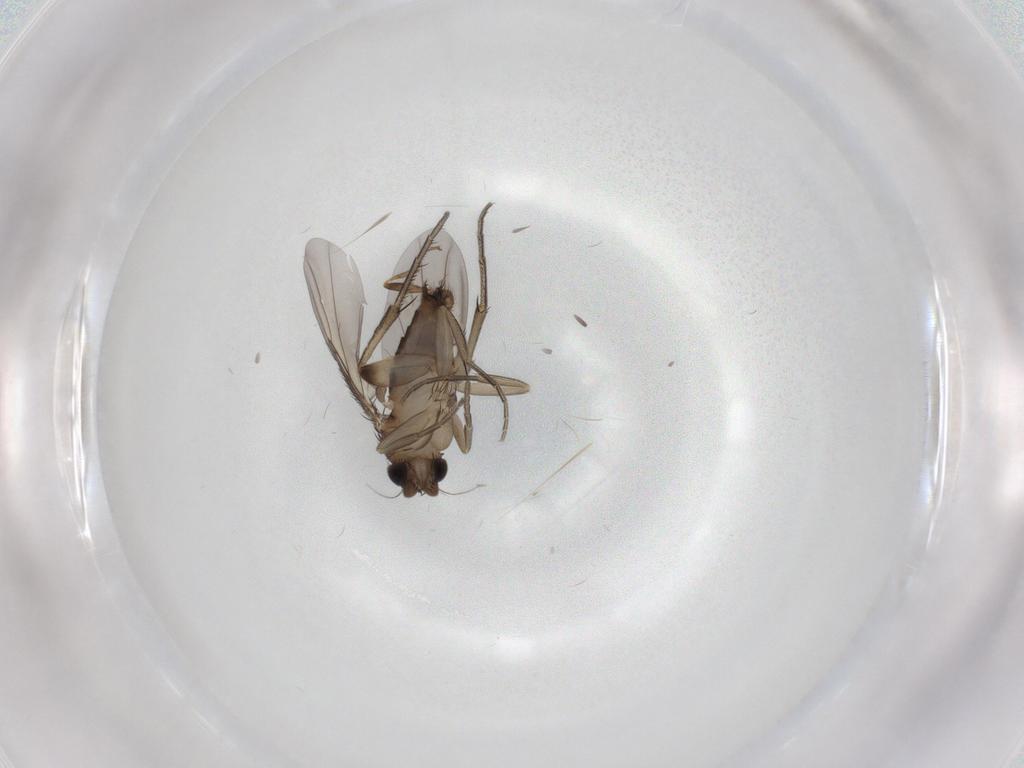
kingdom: Animalia
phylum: Arthropoda
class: Insecta
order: Diptera
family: Phoridae
